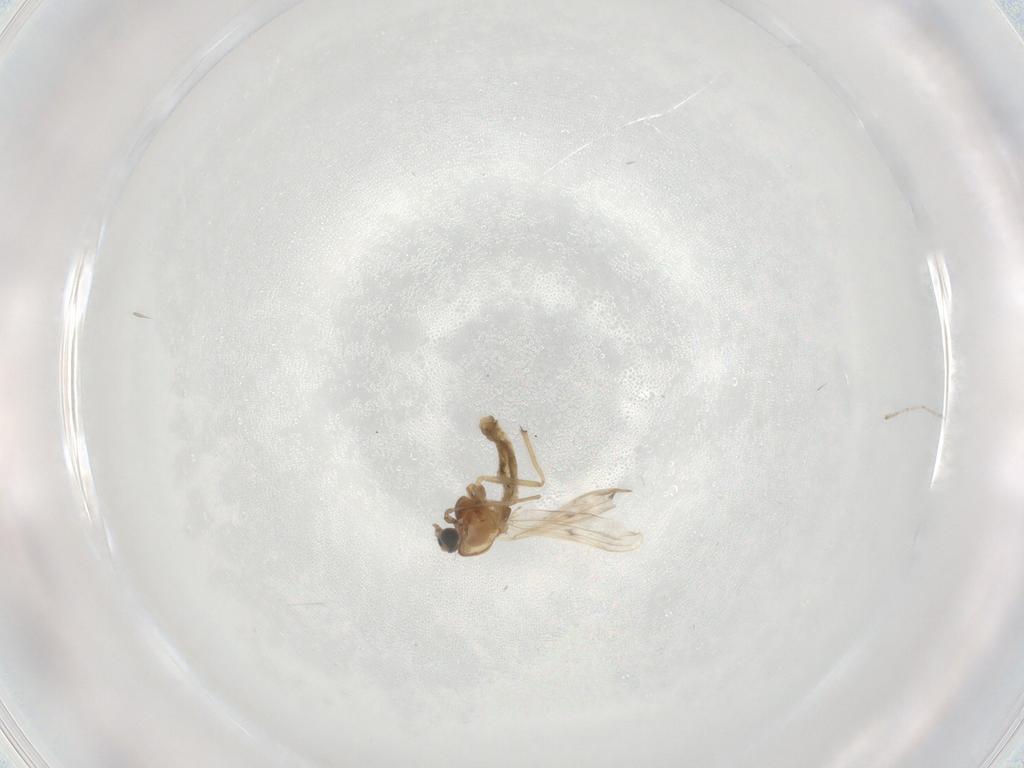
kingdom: Animalia
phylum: Arthropoda
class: Insecta
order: Diptera
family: Chironomidae
